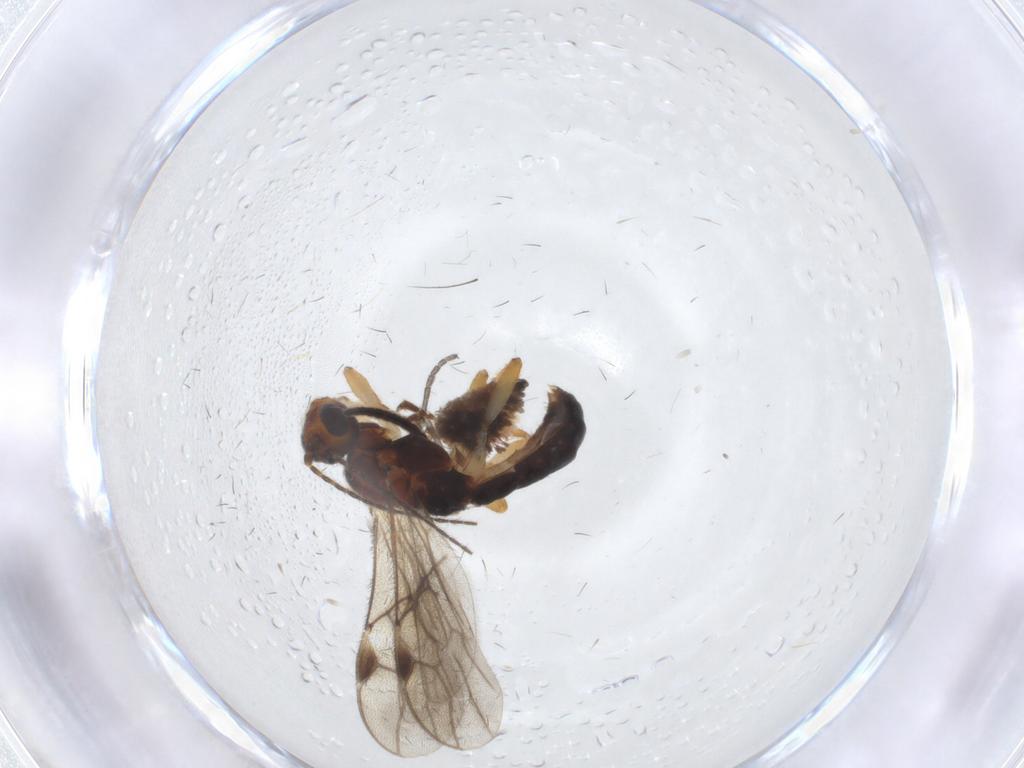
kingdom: Animalia
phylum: Arthropoda
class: Insecta
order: Hymenoptera
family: Braconidae
